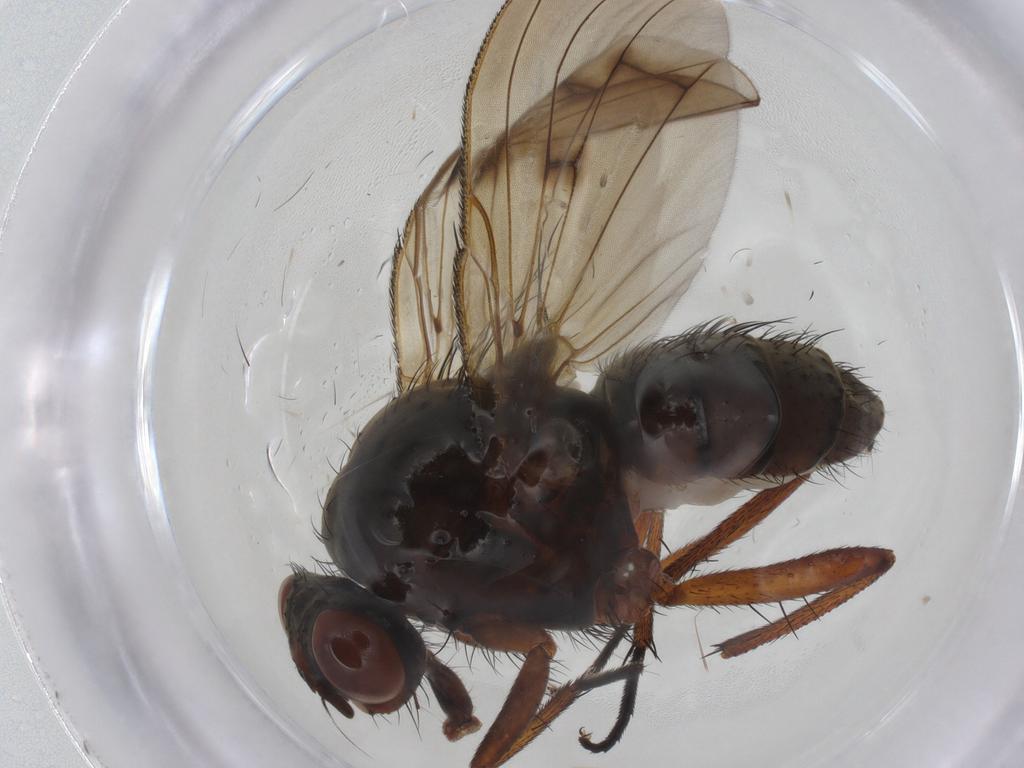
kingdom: Animalia
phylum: Arthropoda
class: Insecta
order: Diptera
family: Anthomyiidae
